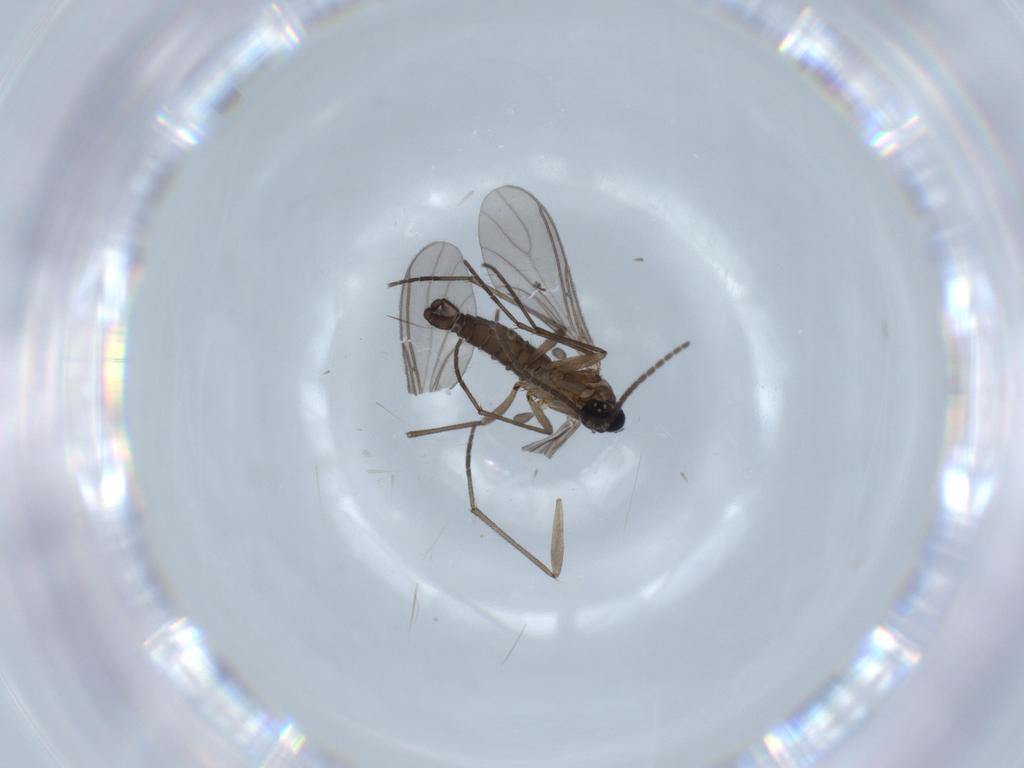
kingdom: Animalia
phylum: Arthropoda
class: Insecta
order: Diptera
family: Sciaridae
